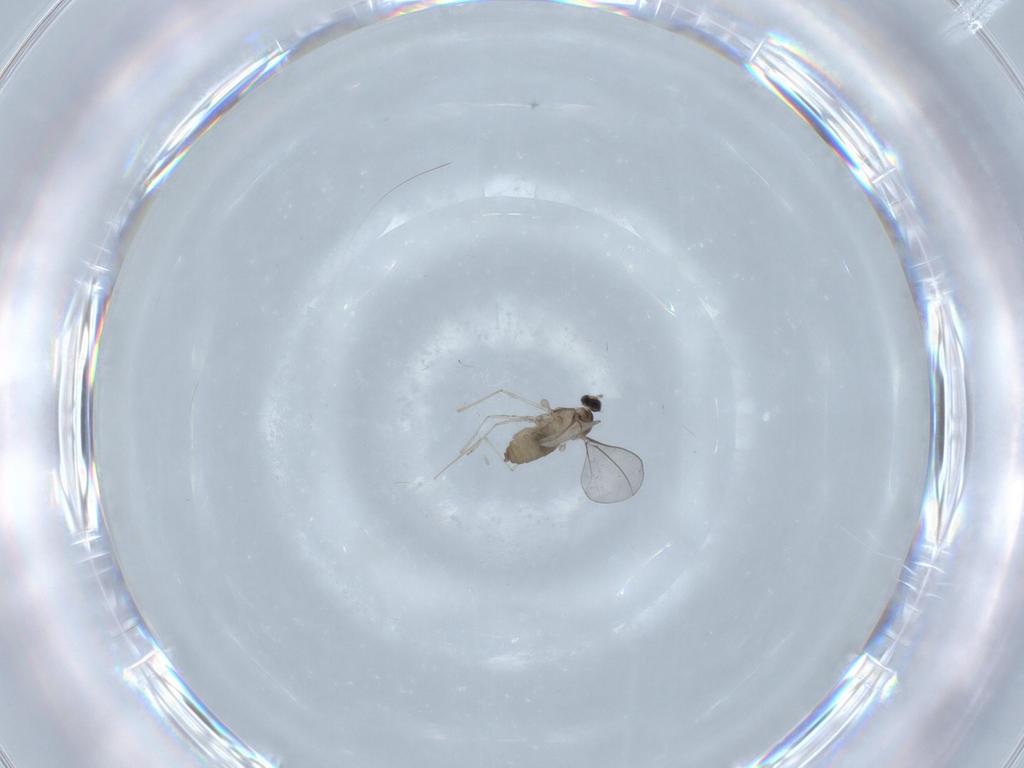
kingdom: Animalia
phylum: Arthropoda
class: Insecta
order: Diptera
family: Cecidomyiidae
